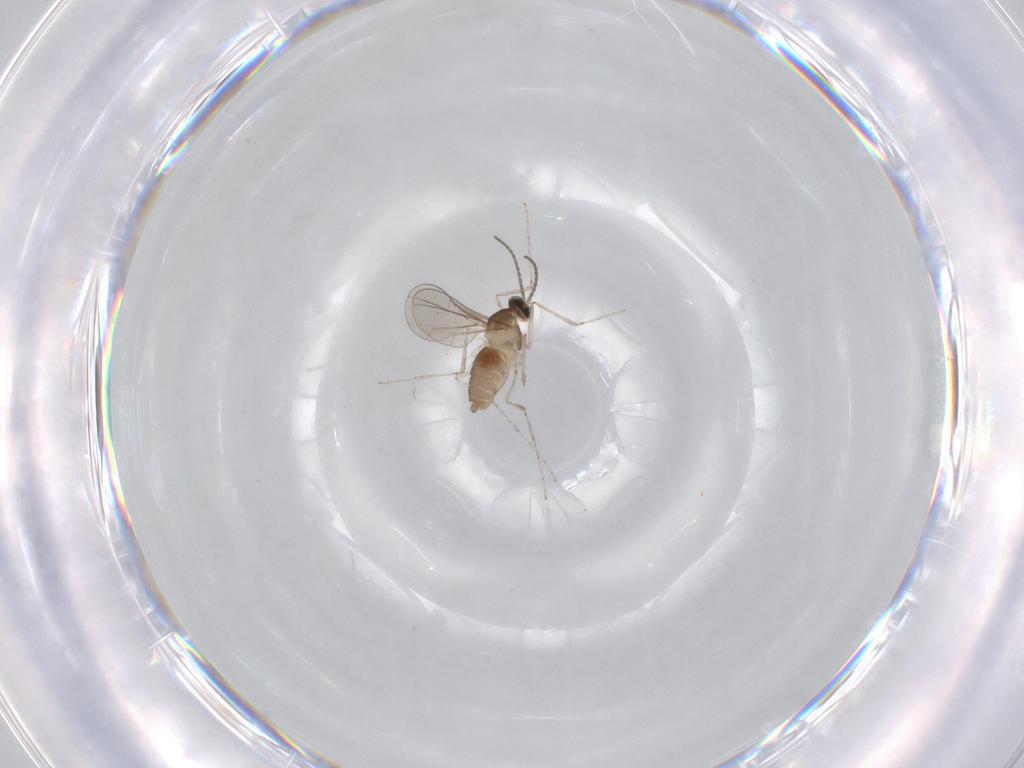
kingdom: Animalia
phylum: Arthropoda
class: Insecta
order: Diptera
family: Cecidomyiidae
